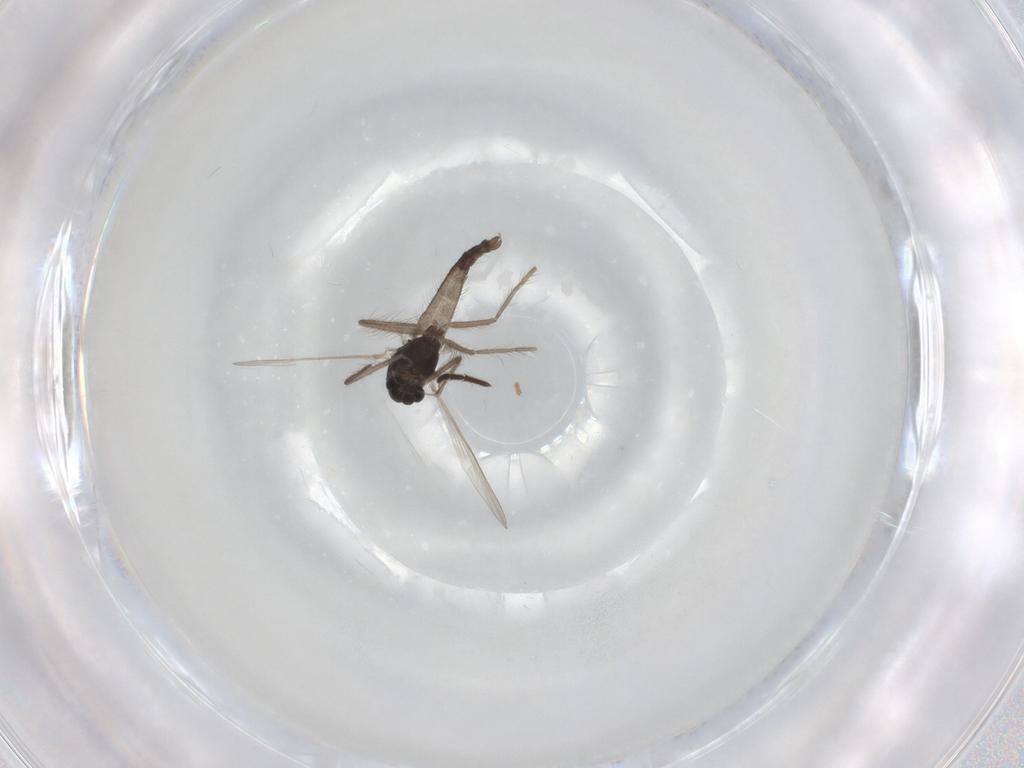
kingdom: Animalia
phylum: Arthropoda
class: Insecta
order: Diptera
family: Chironomidae
